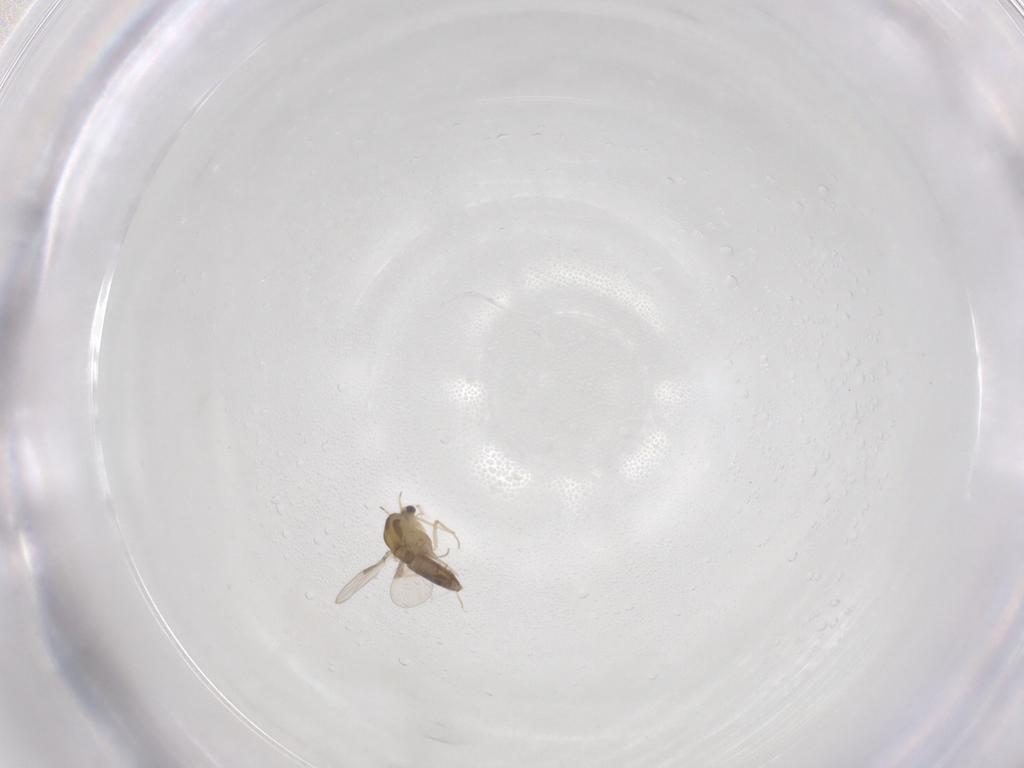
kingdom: Animalia
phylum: Arthropoda
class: Insecta
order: Diptera
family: Chironomidae
